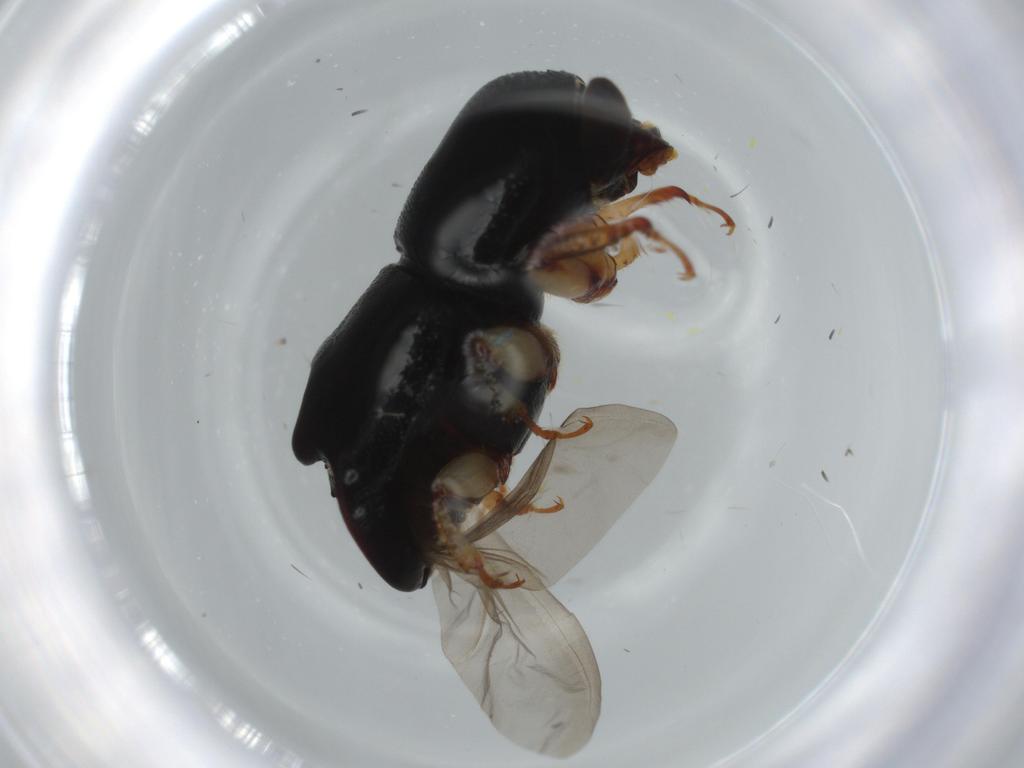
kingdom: Animalia
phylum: Arthropoda
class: Insecta
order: Coleoptera
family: Curculionidae
